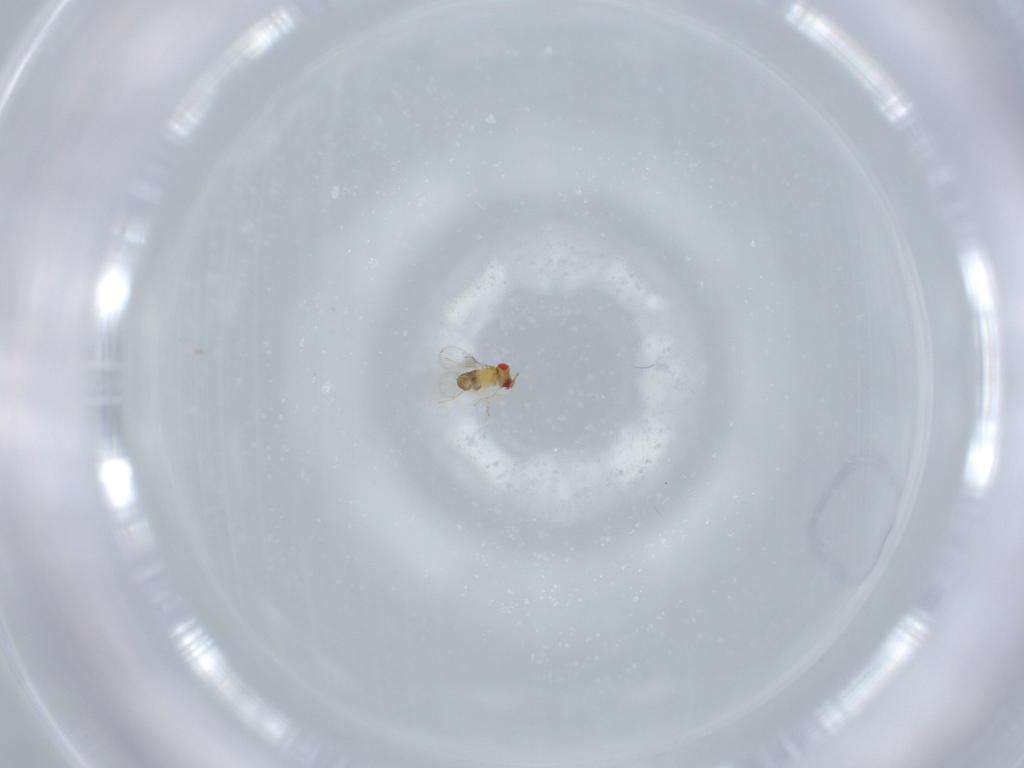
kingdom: Animalia
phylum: Arthropoda
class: Insecta
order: Hymenoptera
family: Trichogrammatidae
